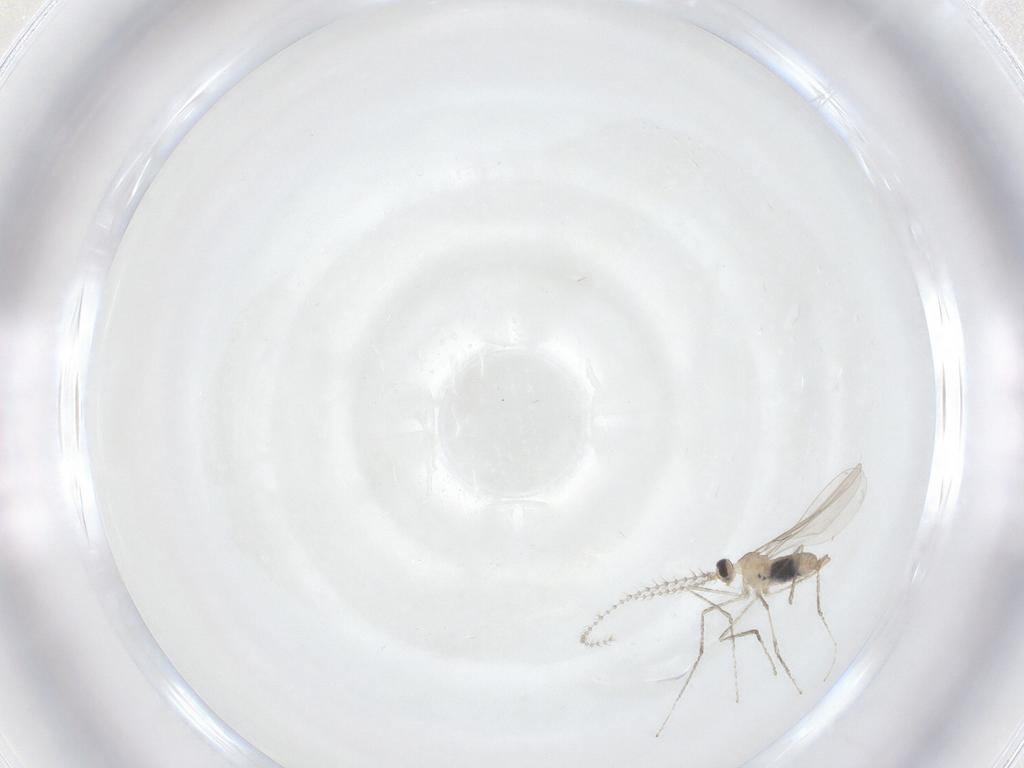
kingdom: Animalia
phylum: Arthropoda
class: Insecta
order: Diptera
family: Cecidomyiidae
